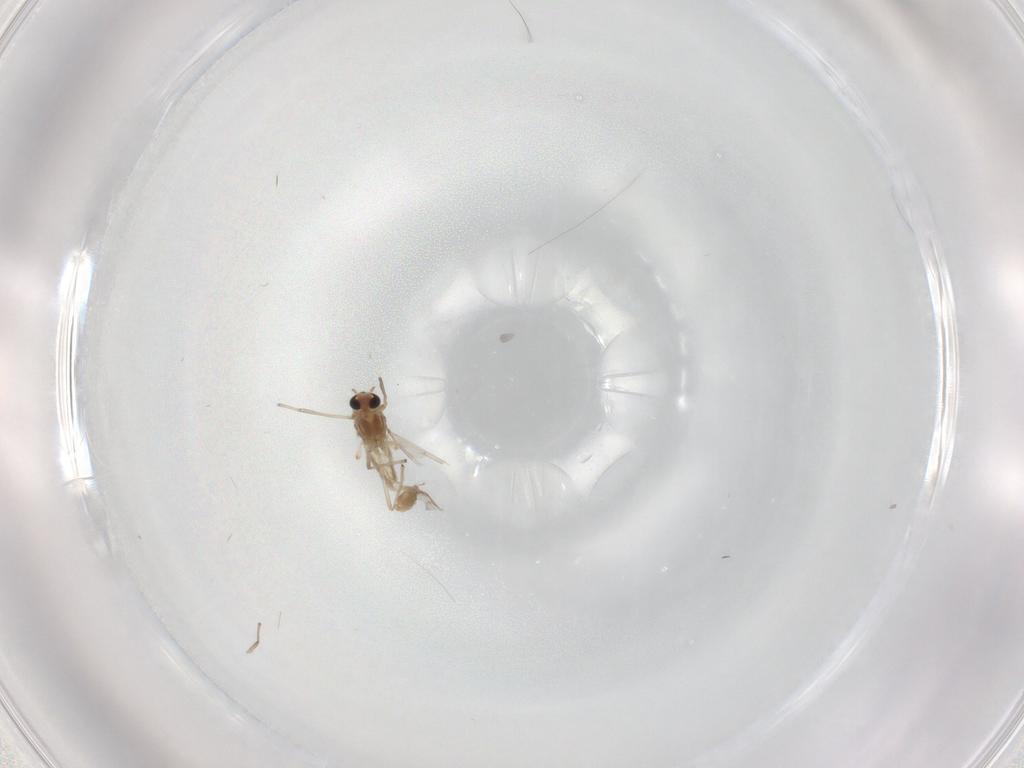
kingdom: Animalia
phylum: Arthropoda
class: Insecta
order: Diptera
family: Chironomidae
